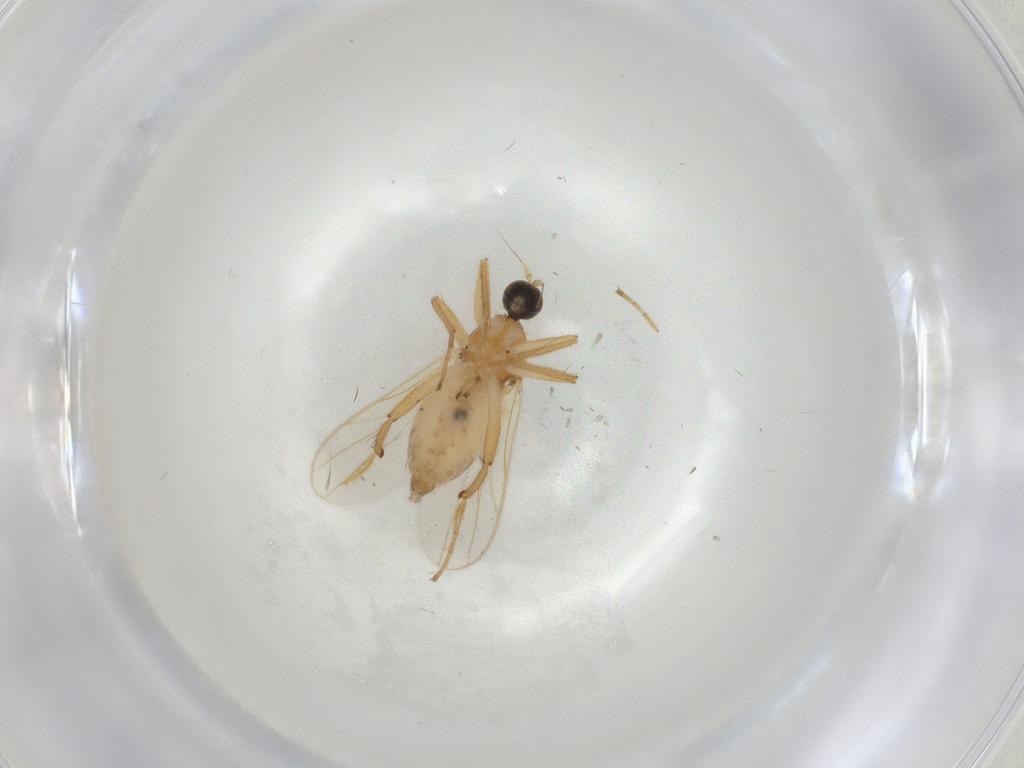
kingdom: Animalia
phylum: Arthropoda
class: Insecta
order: Diptera
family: Hybotidae
